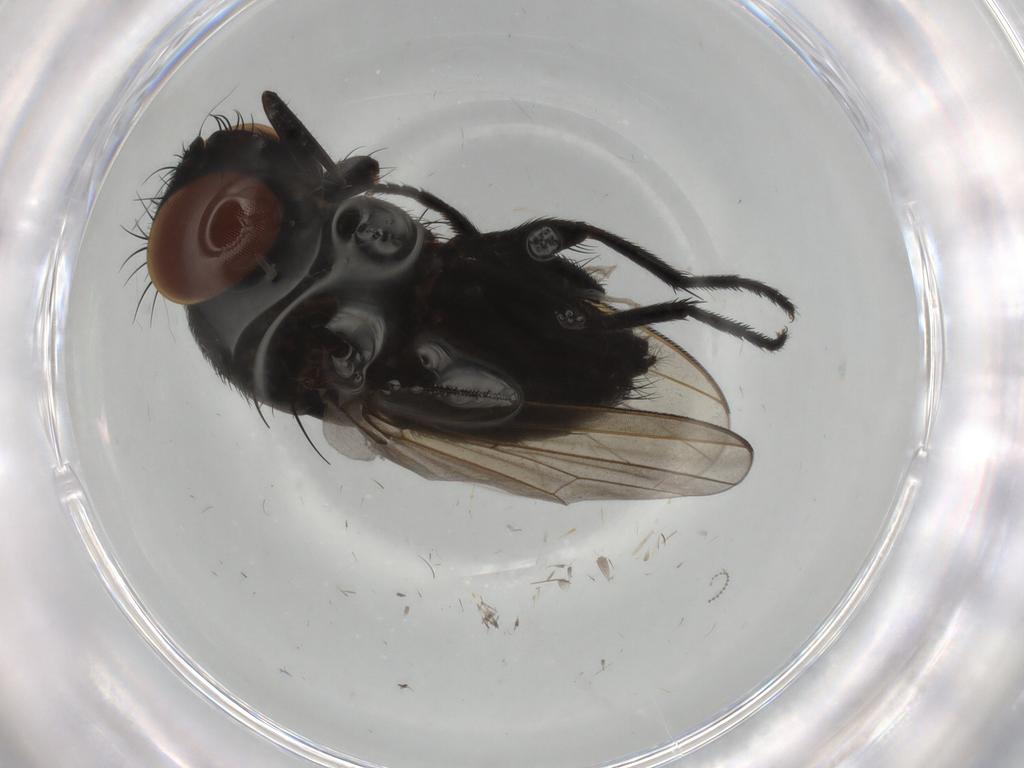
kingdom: Animalia
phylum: Arthropoda
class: Insecta
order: Diptera
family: Milichiidae
